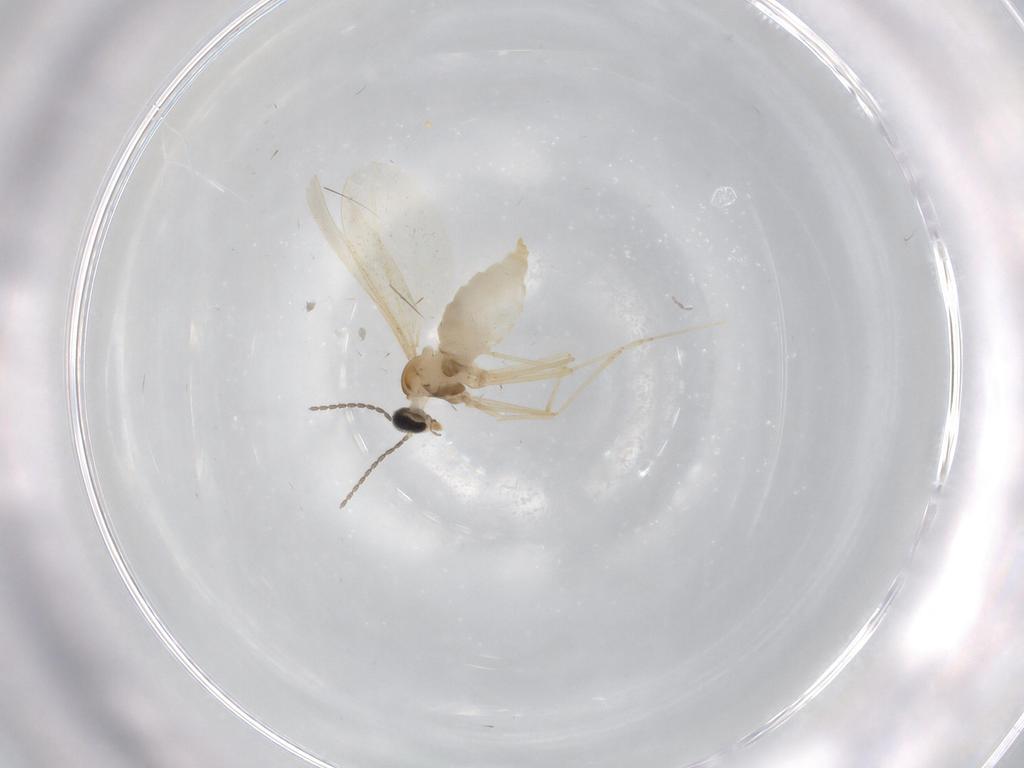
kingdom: Animalia
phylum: Arthropoda
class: Insecta
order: Diptera
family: Cecidomyiidae
